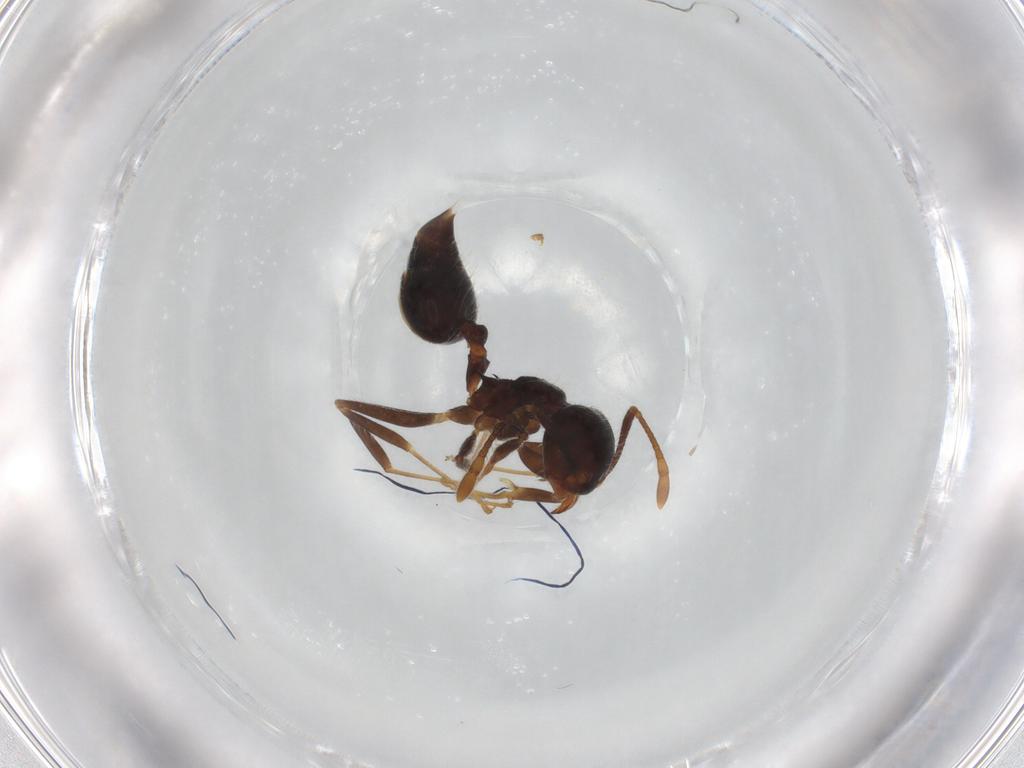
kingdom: Animalia
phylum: Arthropoda
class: Insecta
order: Hymenoptera
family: Formicidae
